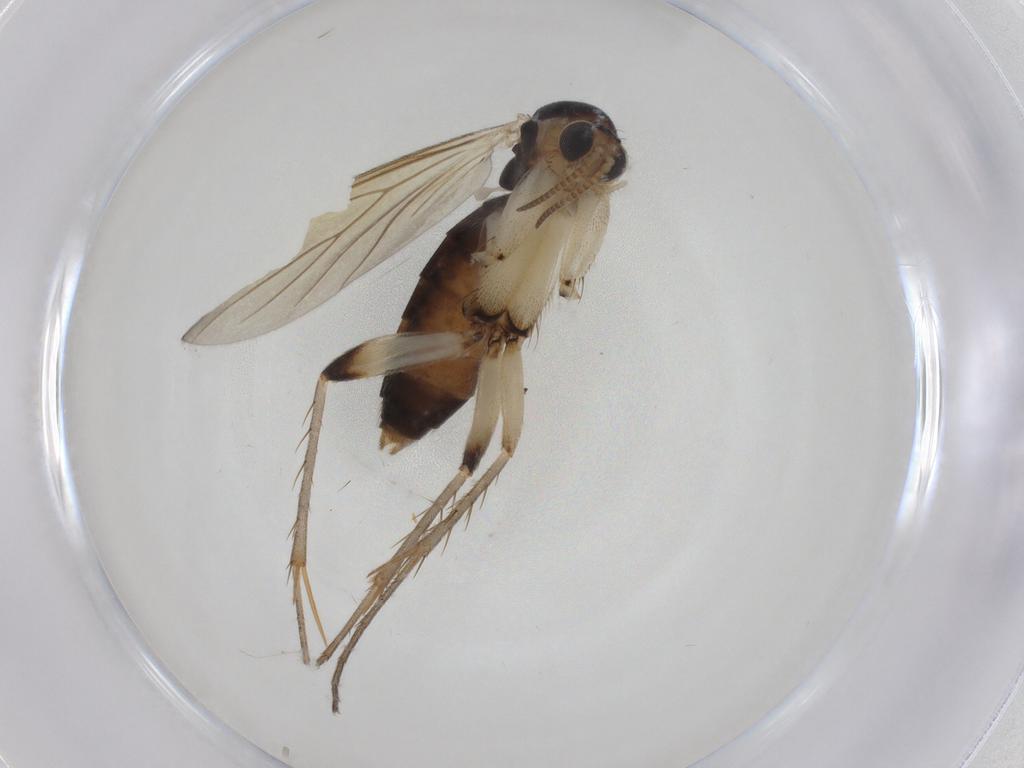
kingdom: Animalia
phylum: Arthropoda
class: Insecta
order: Diptera
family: Mycetophilidae
